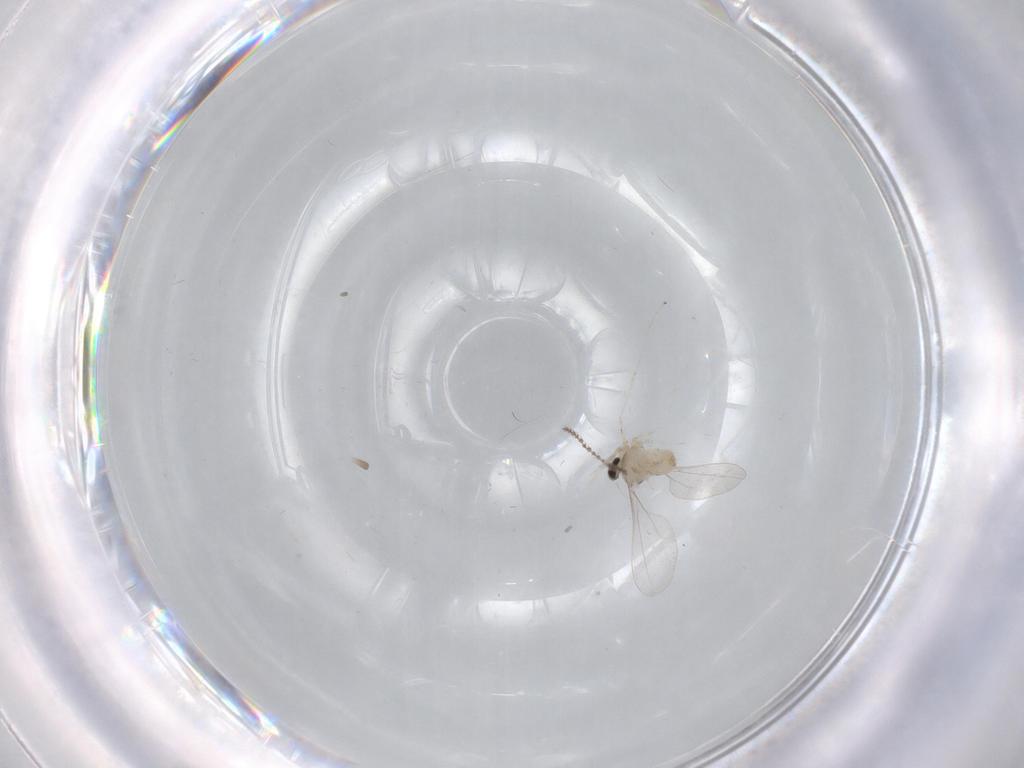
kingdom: Animalia
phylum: Arthropoda
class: Insecta
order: Diptera
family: Cecidomyiidae
